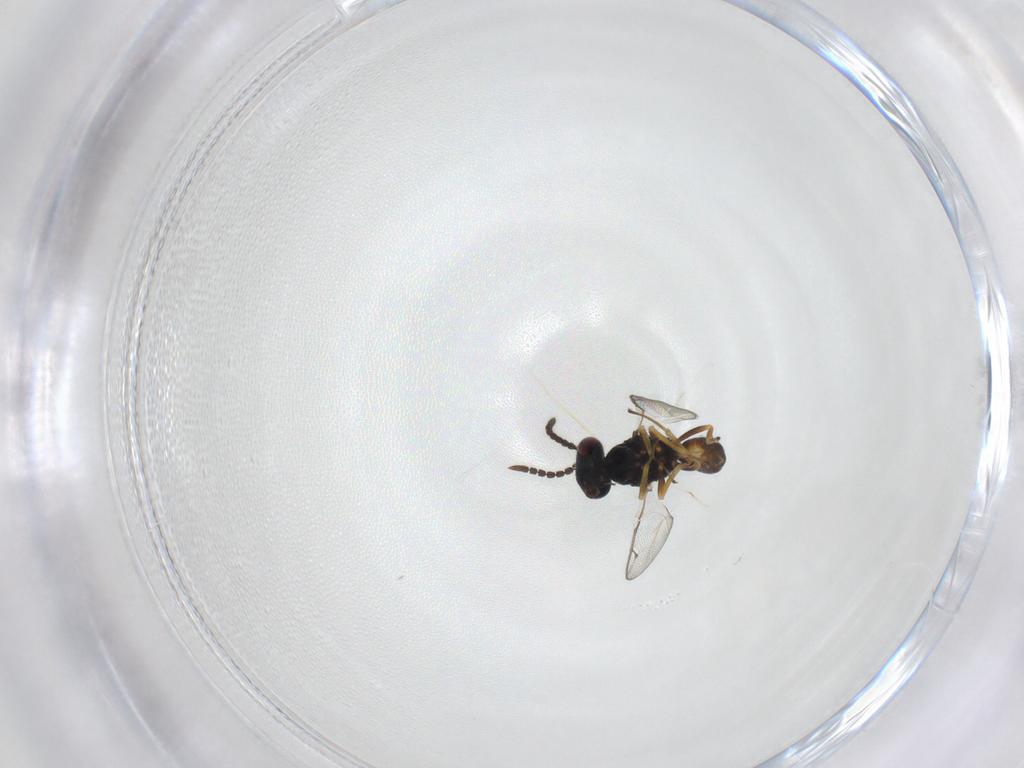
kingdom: Animalia
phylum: Arthropoda
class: Insecta
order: Hymenoptera
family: Pteromalidae
